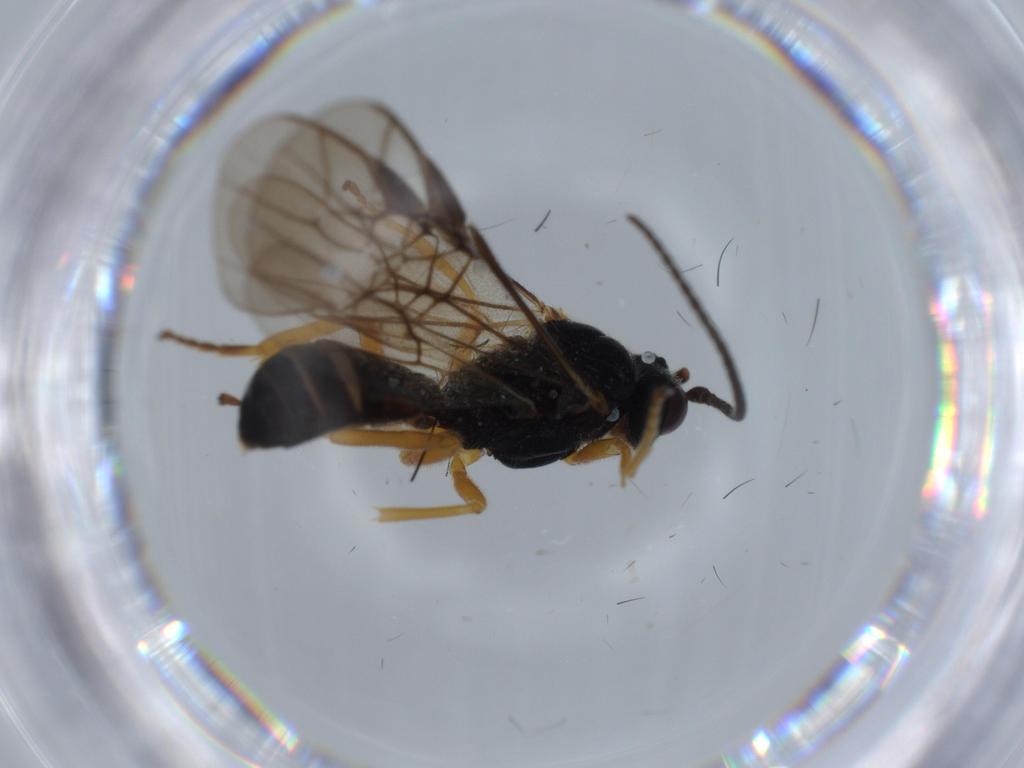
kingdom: Animalia
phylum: Arthropoda
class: Insecta
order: Hymenoptera
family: Braconidae
